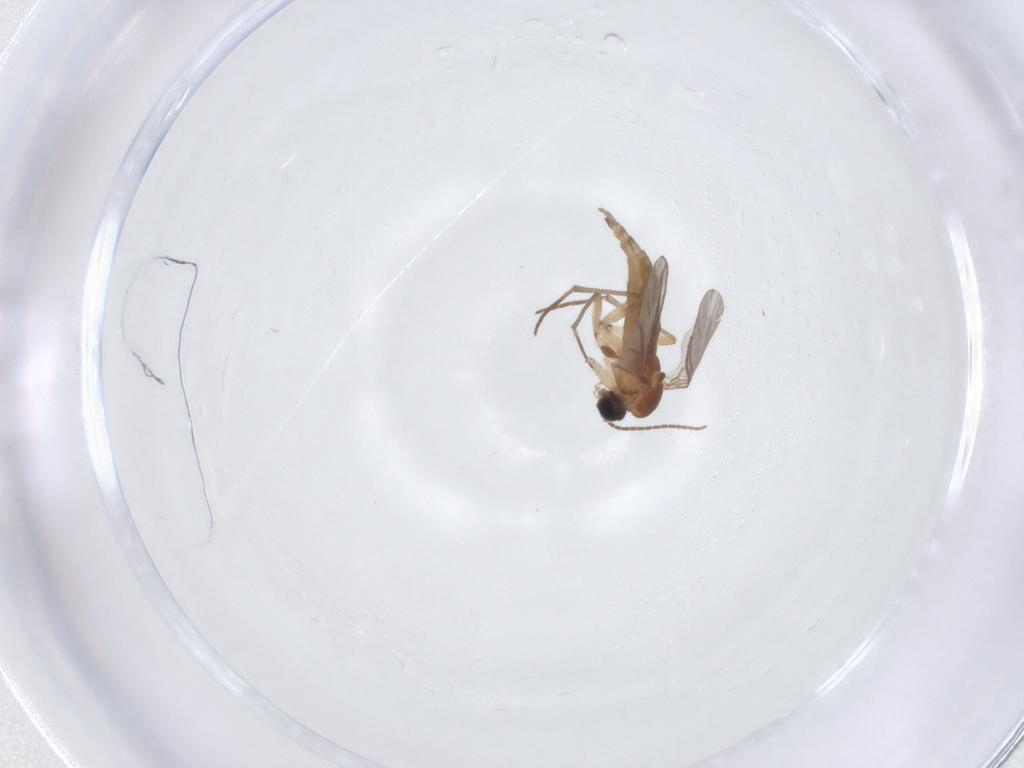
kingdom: Animalia
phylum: Arthropoda
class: Insecta
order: Diptera
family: Sciaridae
